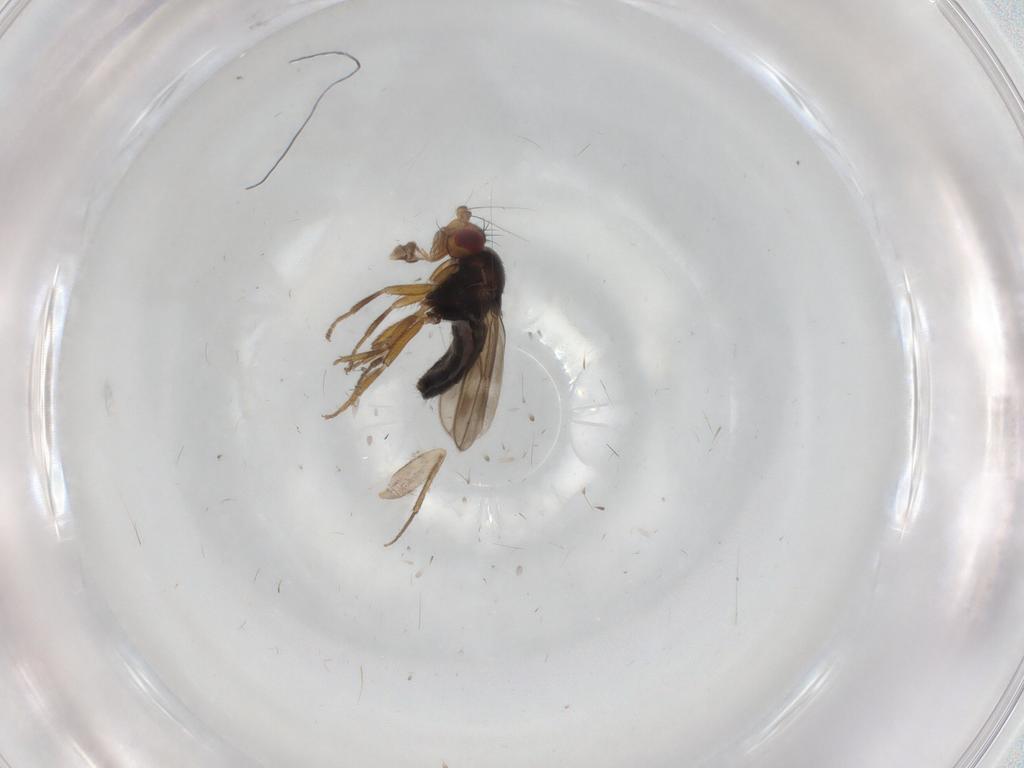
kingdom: Animalia
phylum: Arthropoda
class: Insecta
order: Diptera
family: Sphaeroceridae
